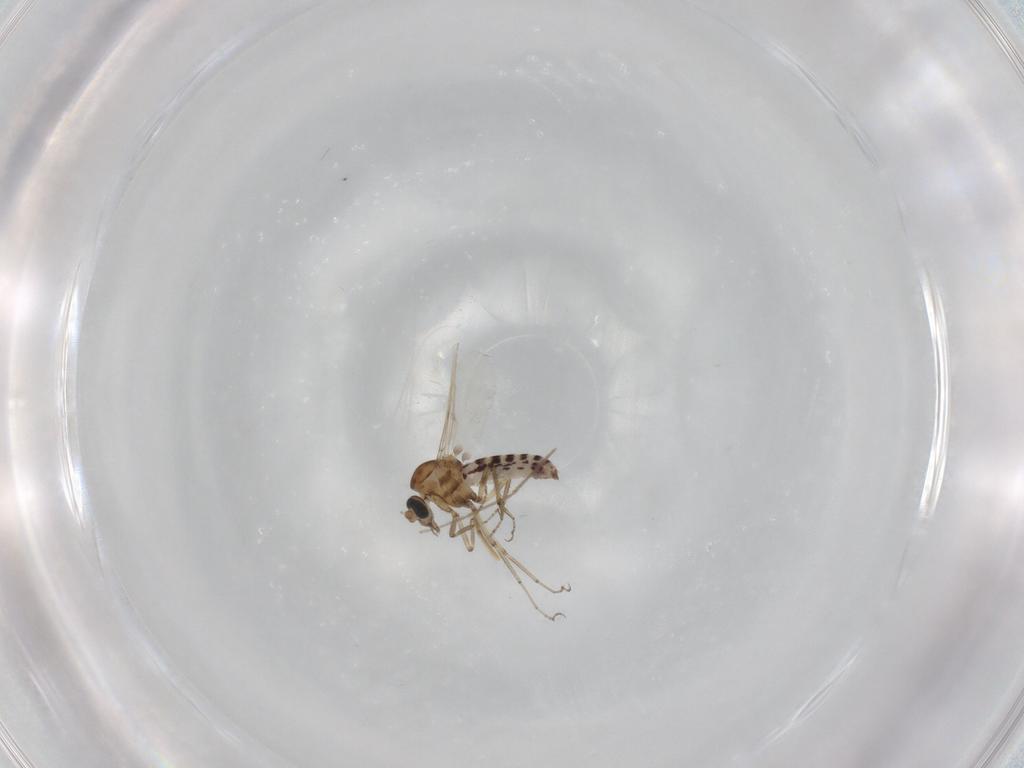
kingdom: Animalia
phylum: Arthropoda
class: Insecta
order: Diptera
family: Chironomidae
